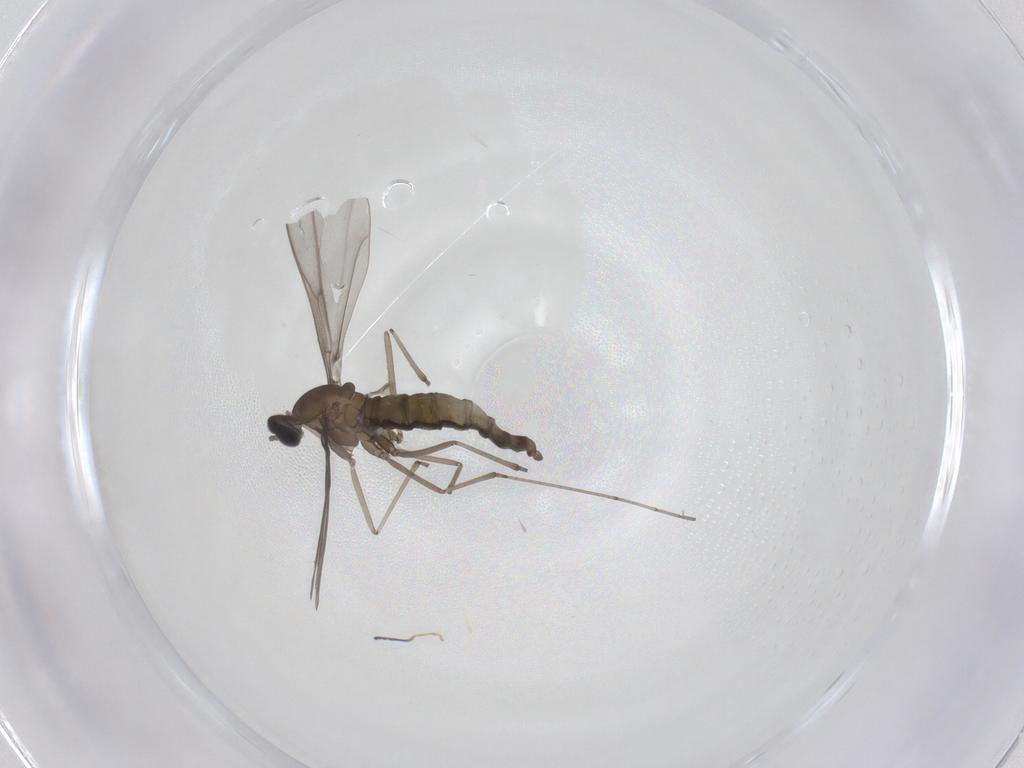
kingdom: Animalia
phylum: Arthropoda
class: Insecta
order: Diptera
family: Cecidomyiidae
